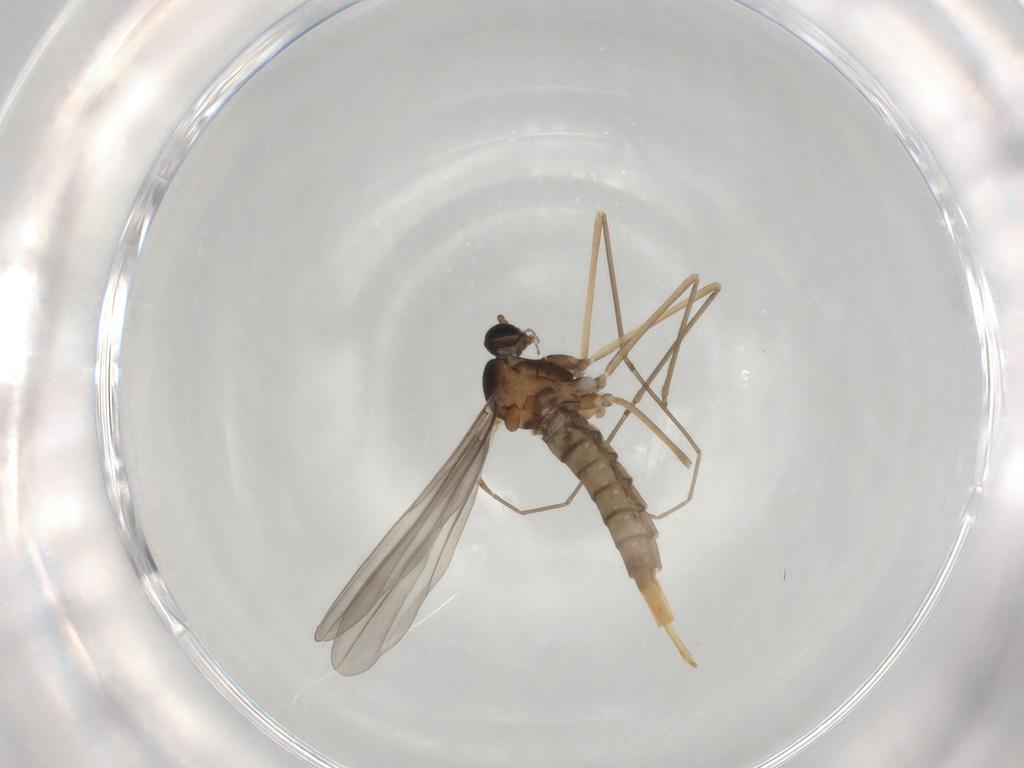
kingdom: Animalia
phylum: Arthropoda
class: Insecta
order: Diptera
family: Cecidomyiidae
